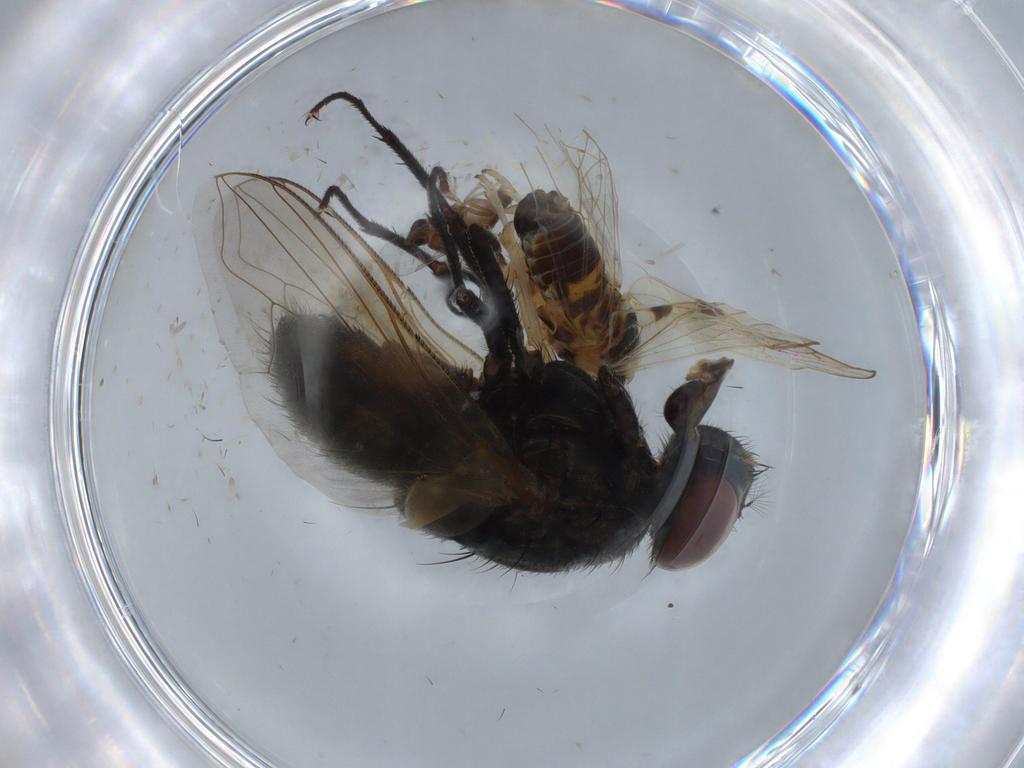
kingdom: Animalia
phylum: Arthropoda
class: Insecta
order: Diptera
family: Ceratopogonidae
